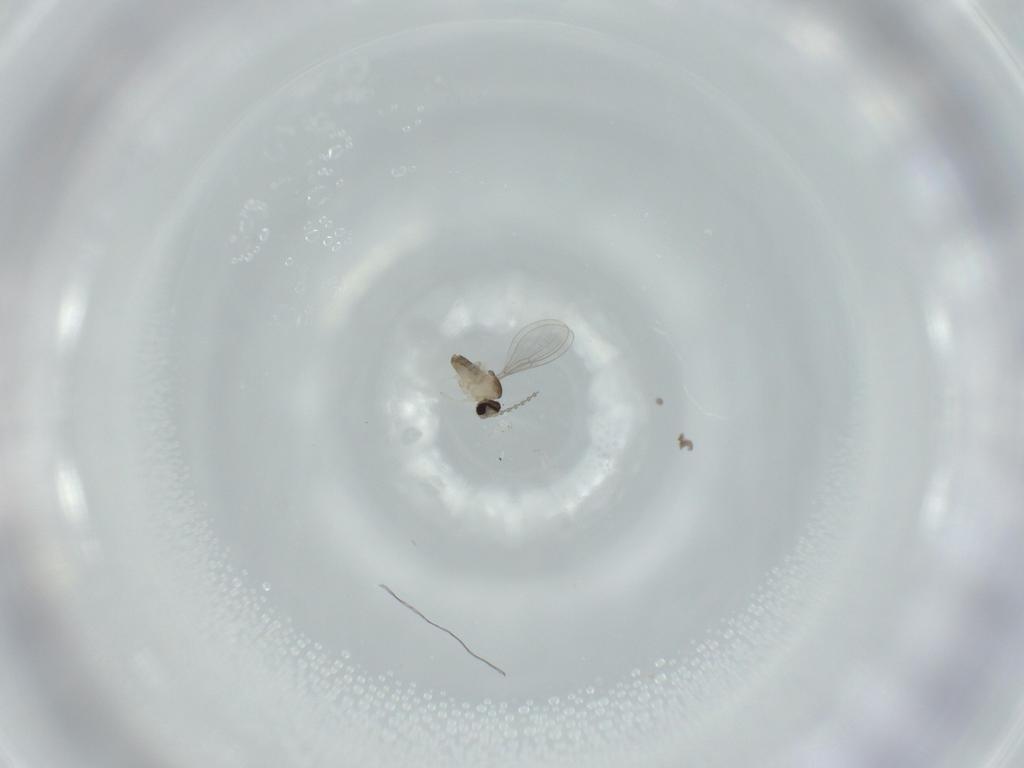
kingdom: Animalia
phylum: Arthropoda
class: Insecta
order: Diptera
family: Cecidomyiidae
